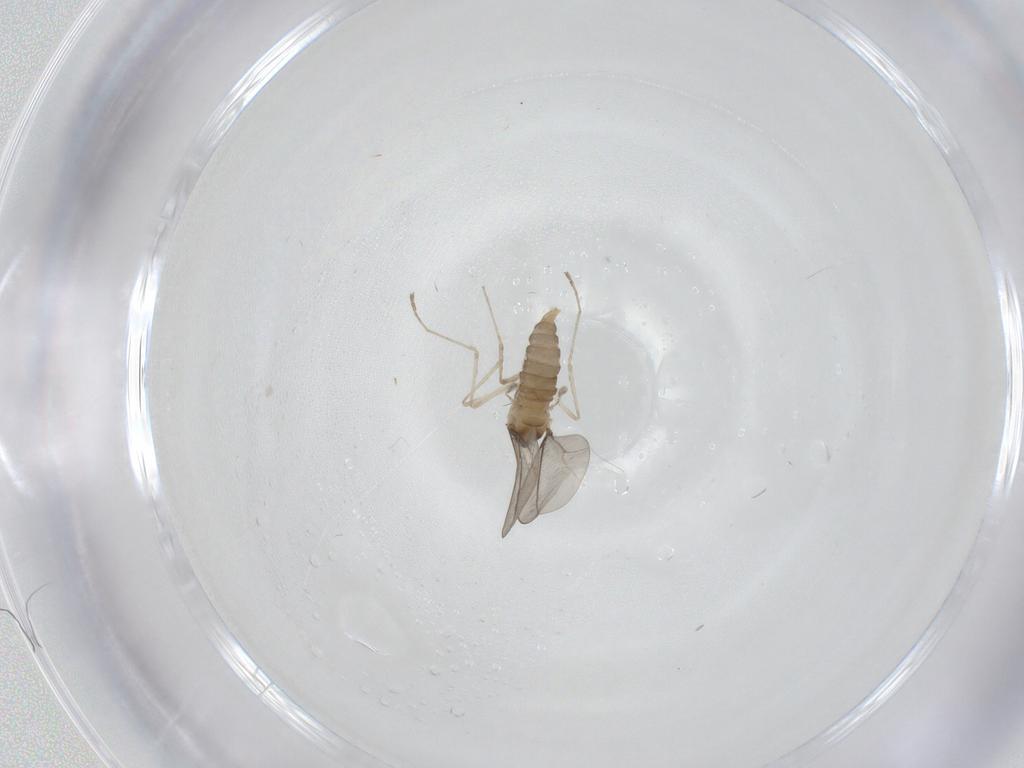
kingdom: Animalia
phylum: Arthropoda
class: Insecta
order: Diptera
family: Chironomidae
